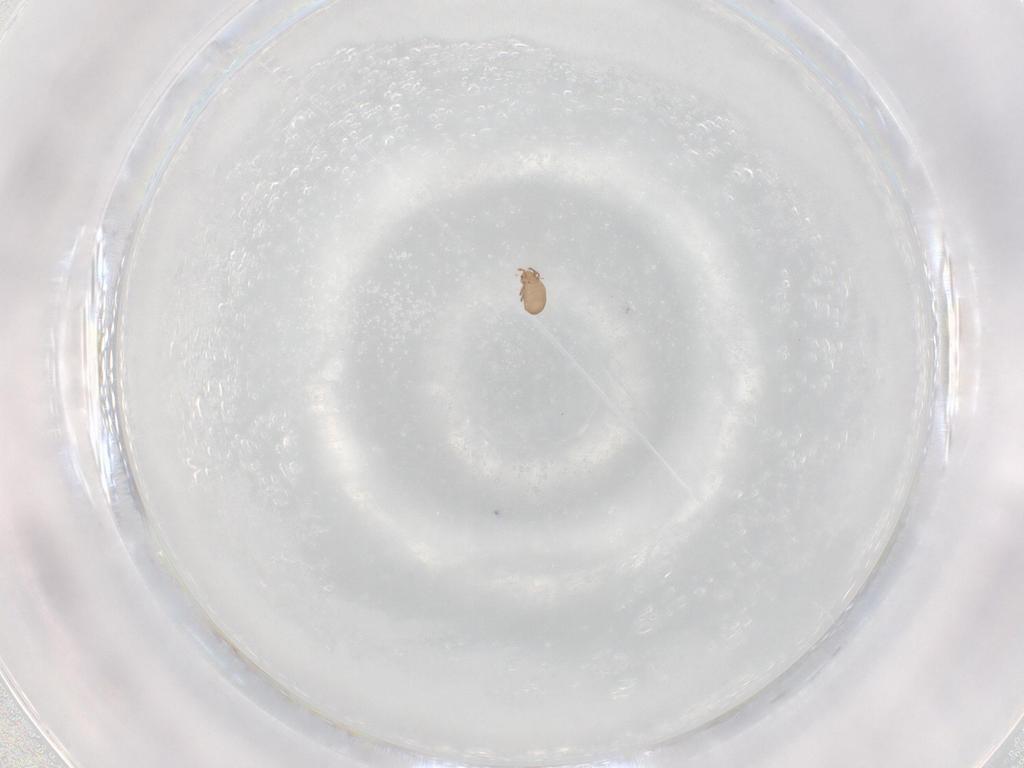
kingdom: Animalia
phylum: Arthropoda
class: Arachnida
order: Sarcoptiformes
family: Eremaeidae
